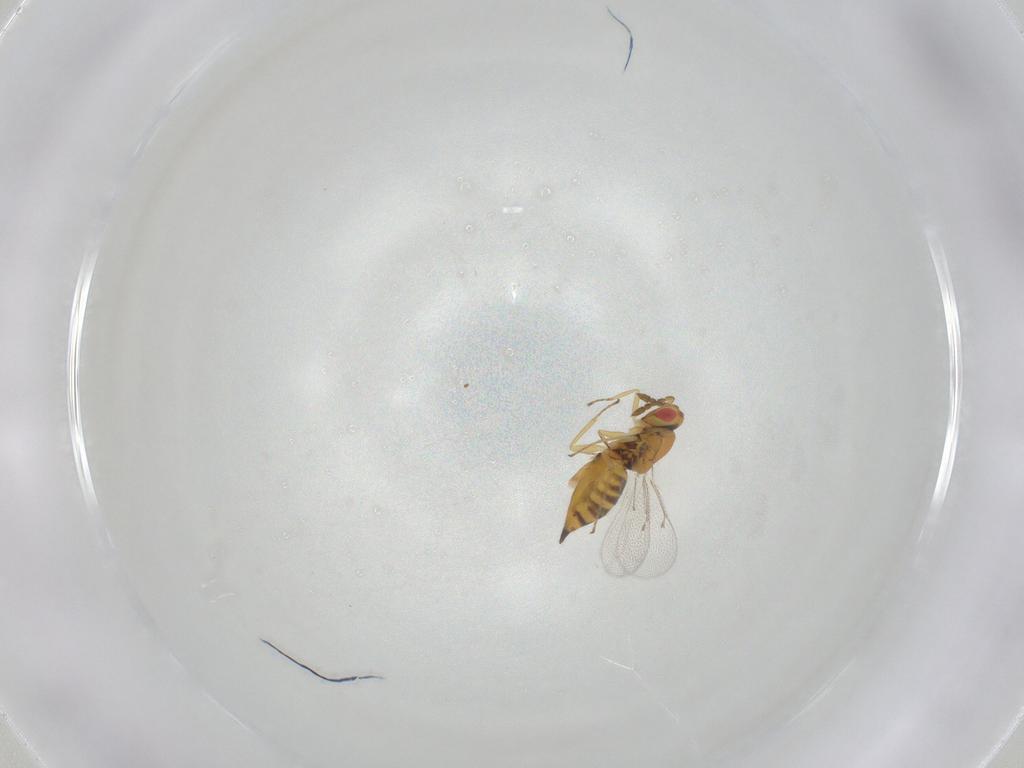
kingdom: Animalia
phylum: Arthropoda
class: Insecta
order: Hymenoptera
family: Eulophidae
